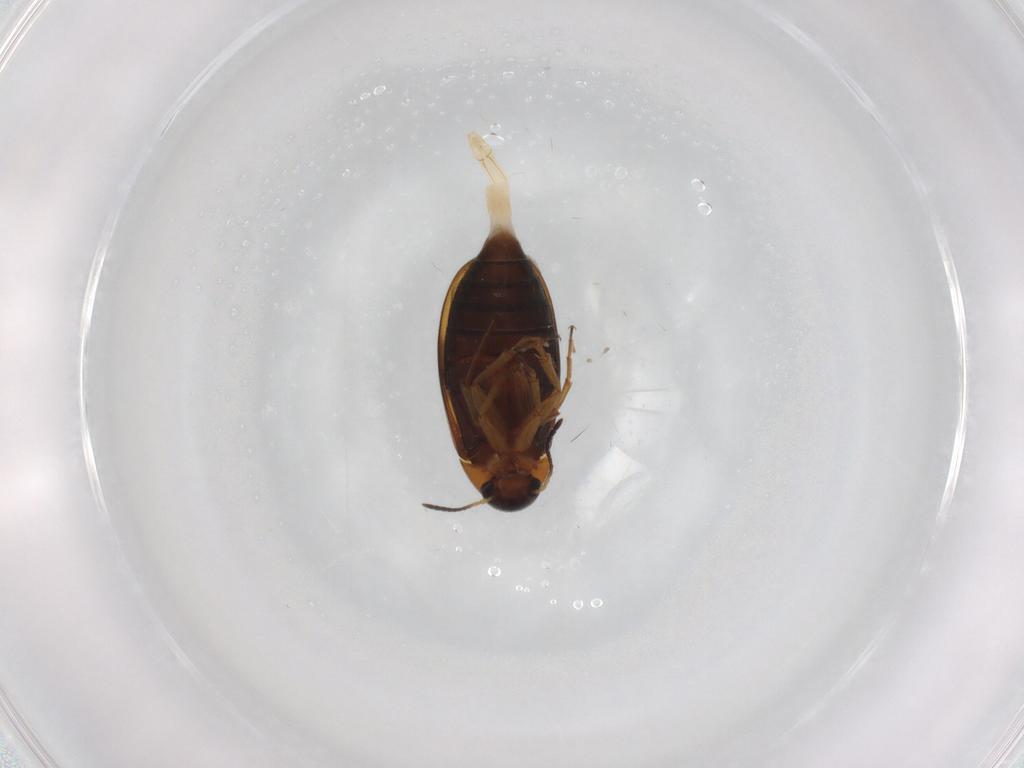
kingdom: Animalia
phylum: Arthropoda
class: Insecta
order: Coleoptera
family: Scraptiidae
